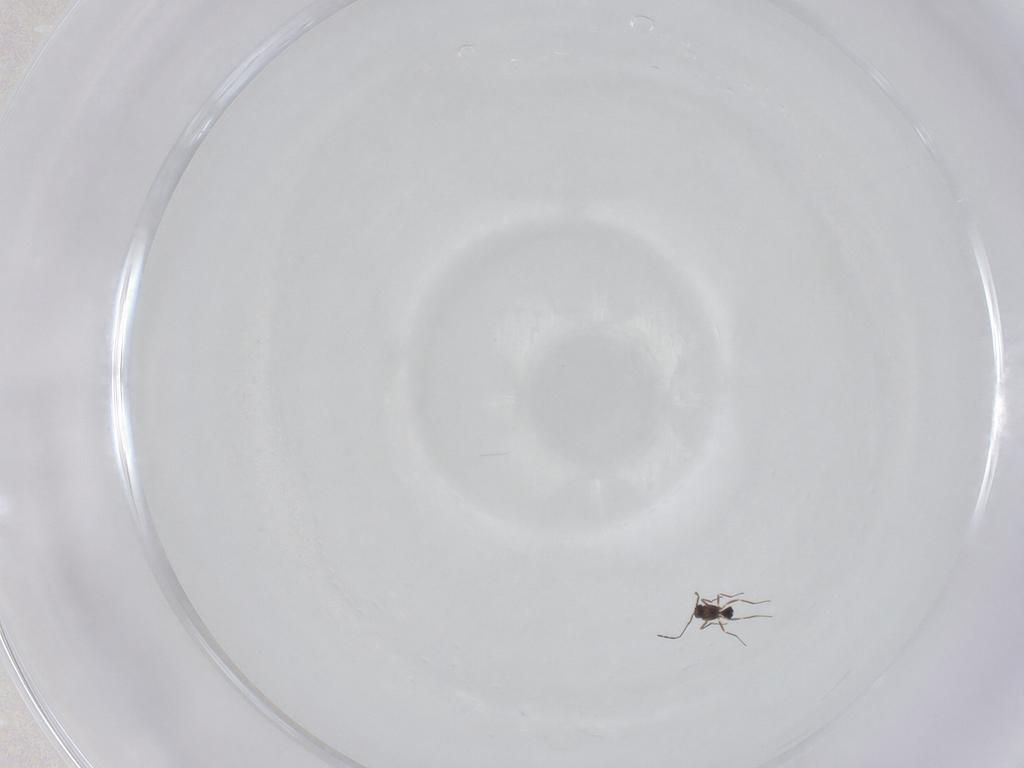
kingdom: Animalia
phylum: Arthropoda
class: Insecta
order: Hymenoptera
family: Mymaridae
